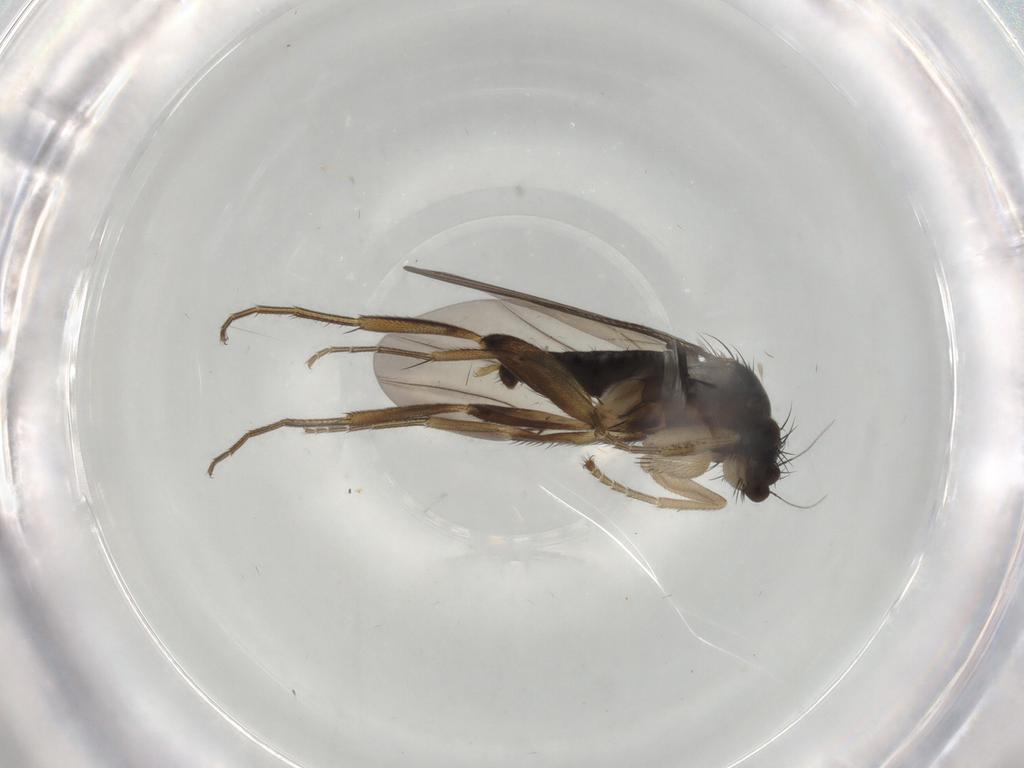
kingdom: Animalia
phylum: Arthropoda
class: Insecta
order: Diptera
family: Phoridae
